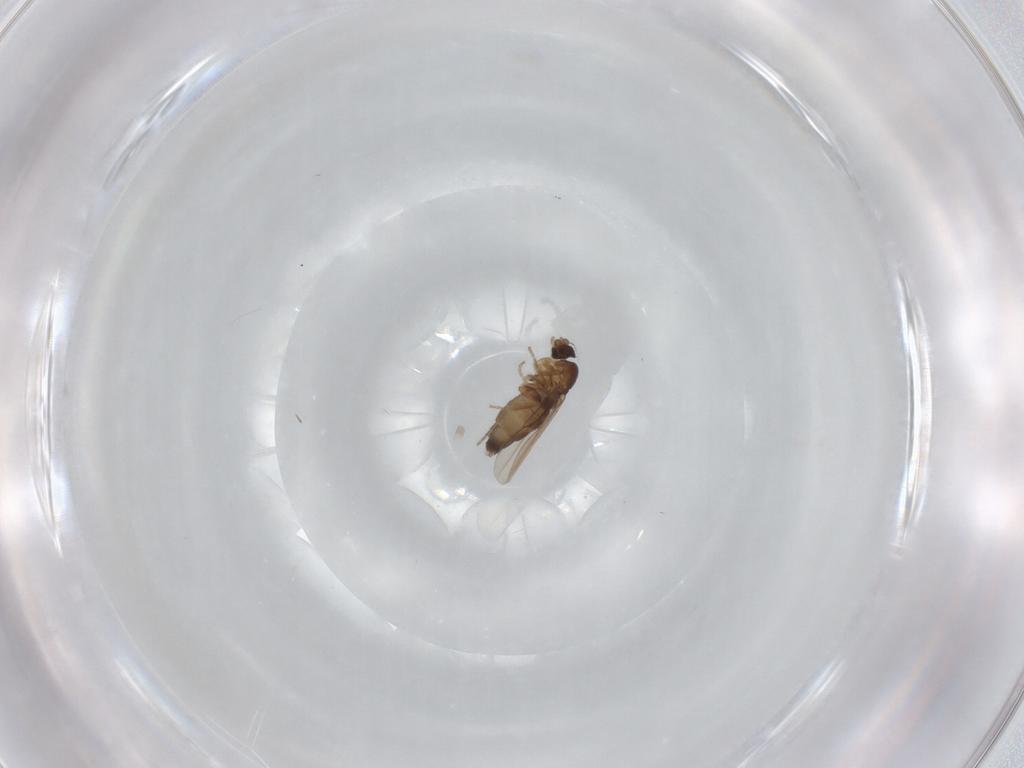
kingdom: Animalia
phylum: Arthropoda
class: Insecta
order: Diptera
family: Phoridae
